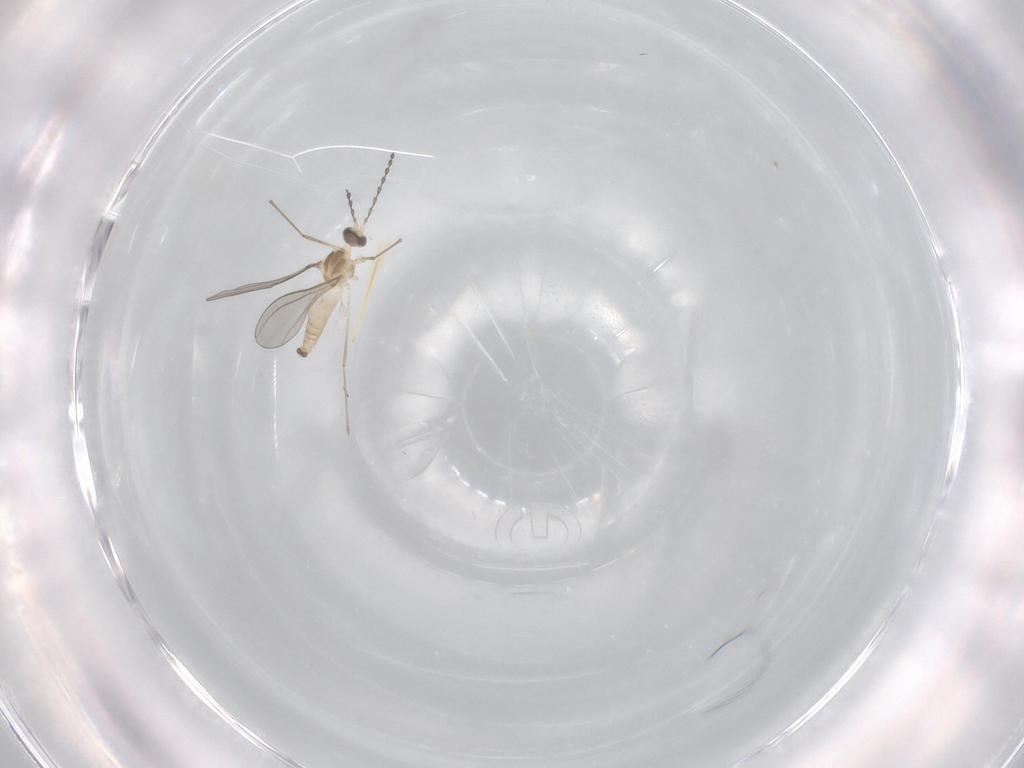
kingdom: Animalia
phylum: Arthropoda
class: Insecta
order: Diptera
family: Cecidomyiidae
